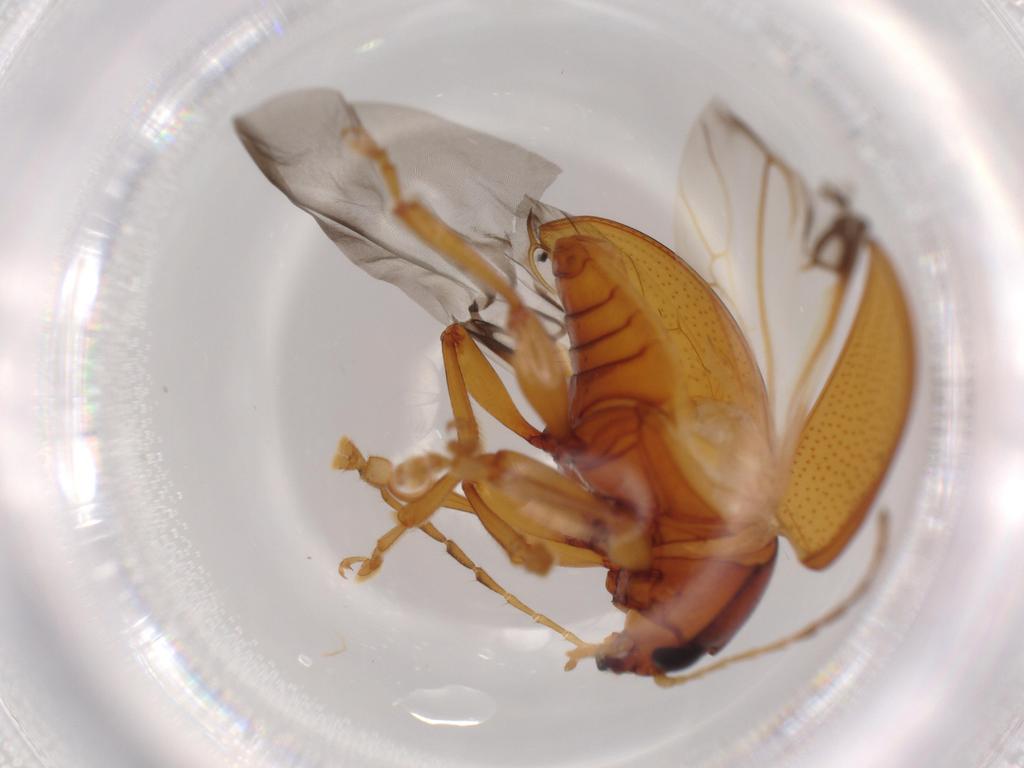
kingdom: Animalia
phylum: Arthropoda
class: Insecta
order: Coleoptera
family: Chrysomelidae
